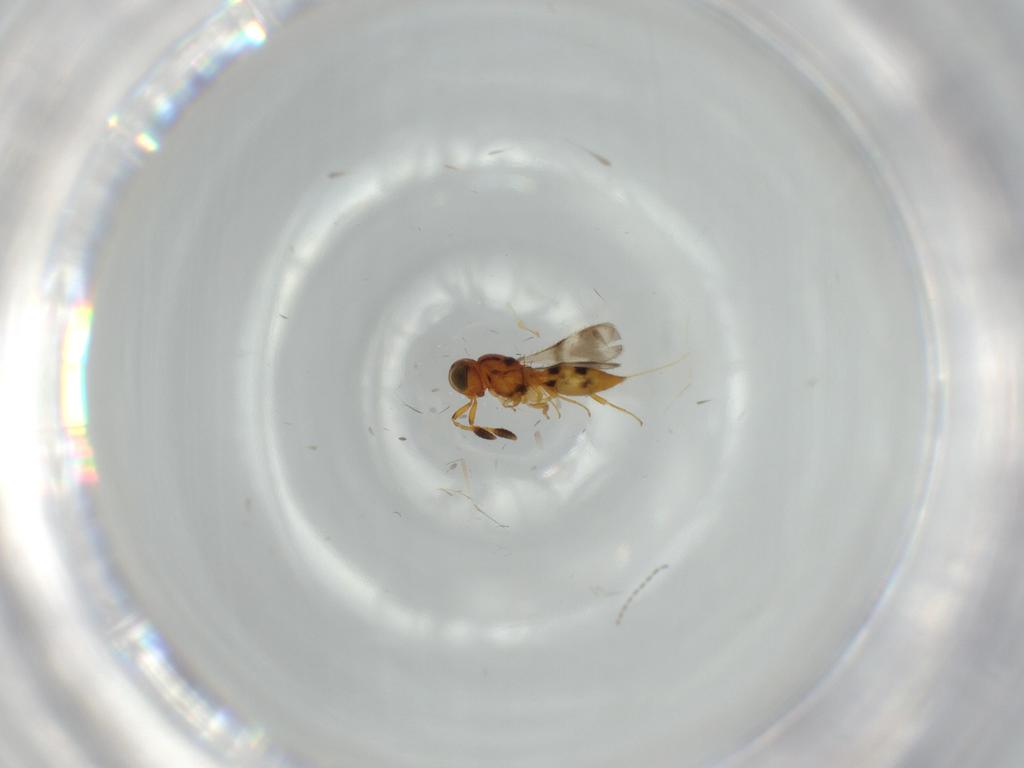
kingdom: Animalia
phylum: Arthropoda
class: Insecta
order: Hymenoptera
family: Scelionidae
